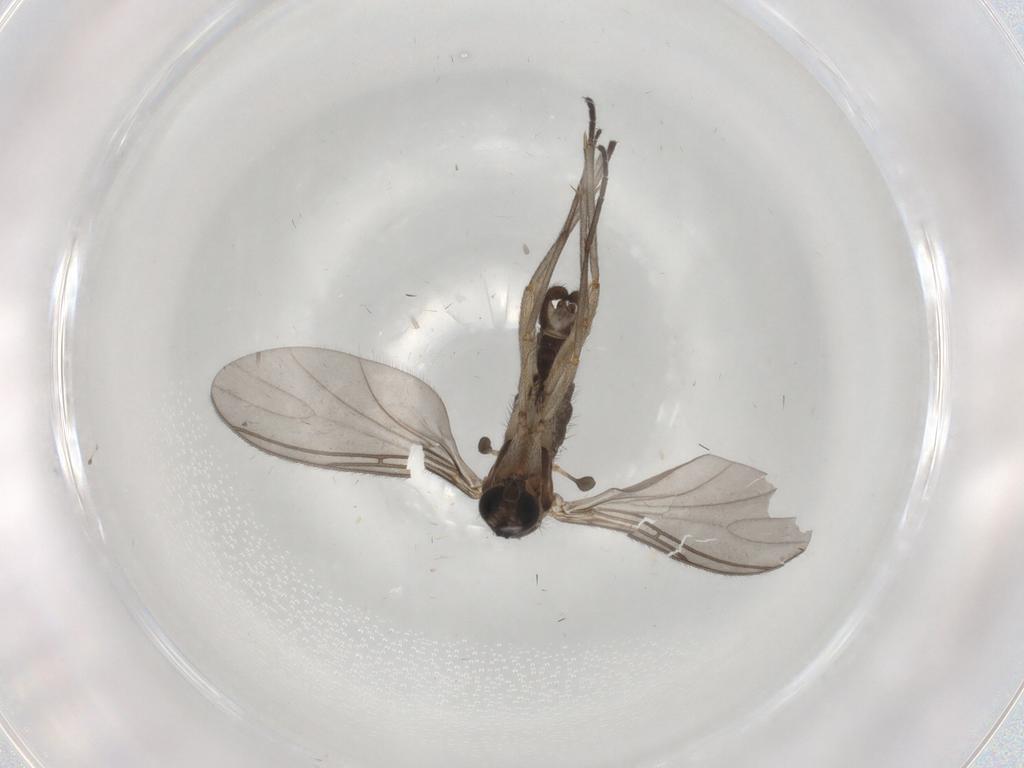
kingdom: Animalia
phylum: Arthropoda
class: Insecta
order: Diptera
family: Sciaridae
